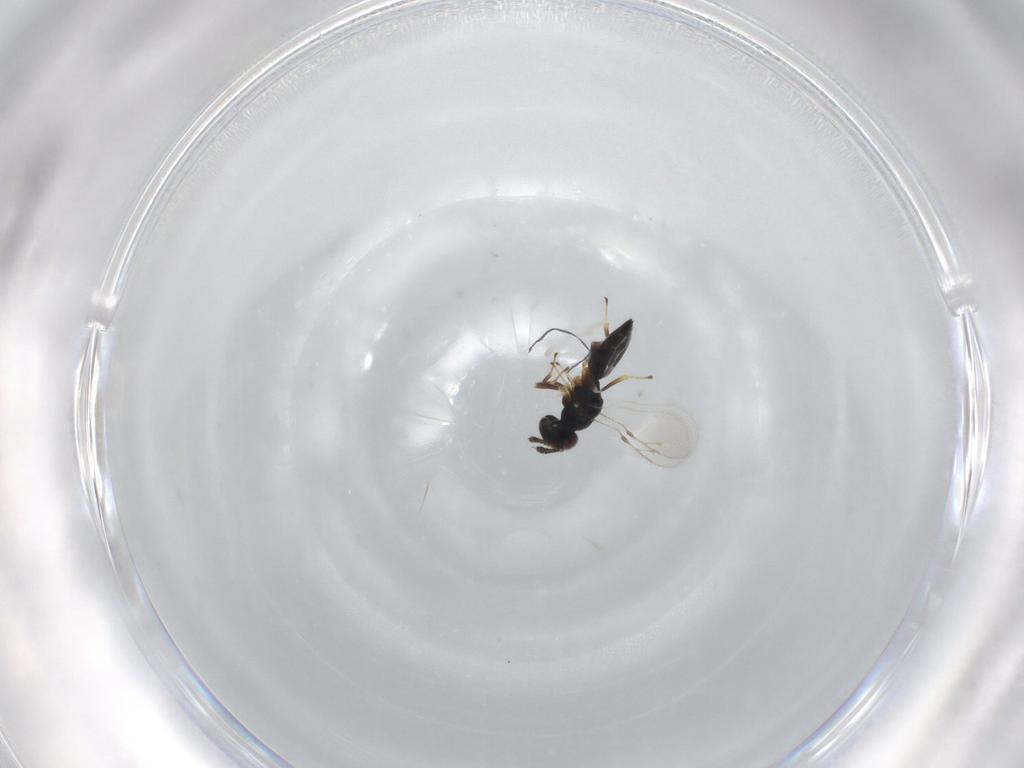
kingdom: Animalia
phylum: Arthropoda
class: Insecta
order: Hymenoptera
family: Pteromalidae
